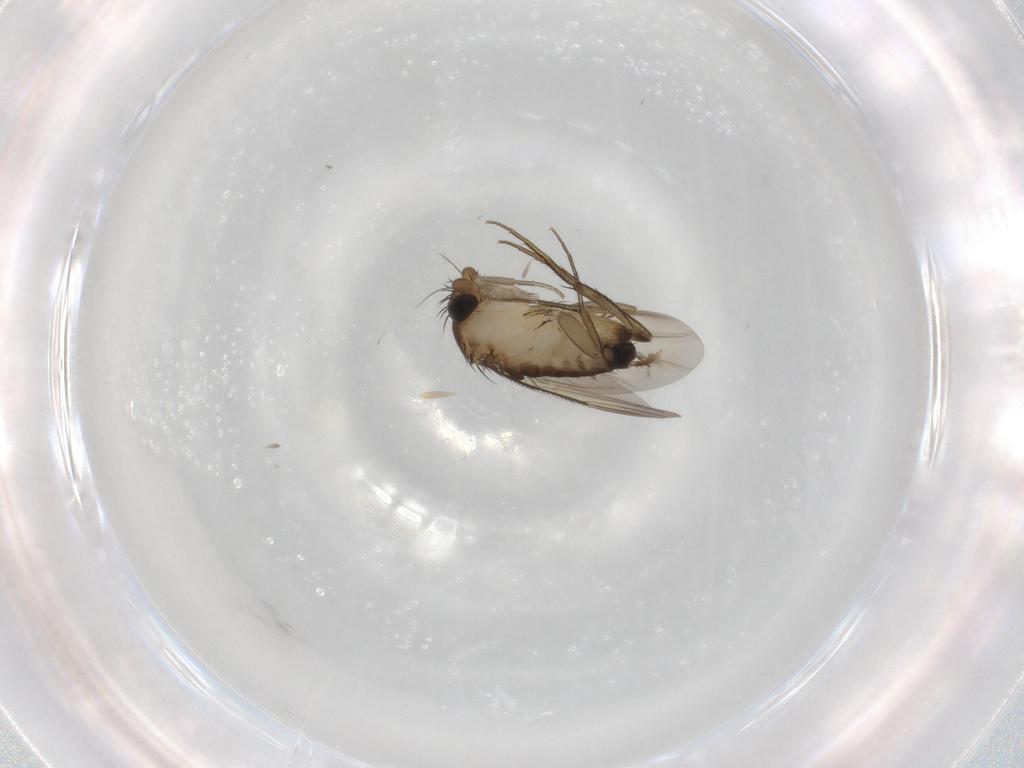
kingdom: Animalia
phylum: Arthropoda
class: Insecta
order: Diptera
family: Phoridae
